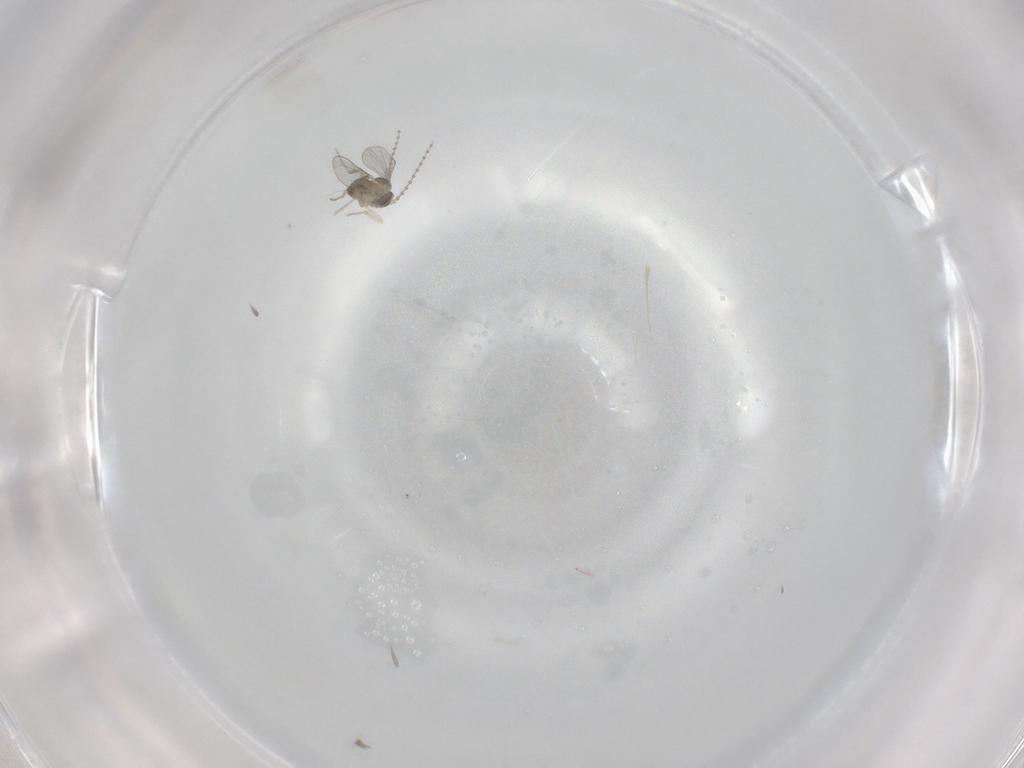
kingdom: Animalia
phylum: Arthropoda
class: Insecta
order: Diptera
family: Cecidomyiidae
